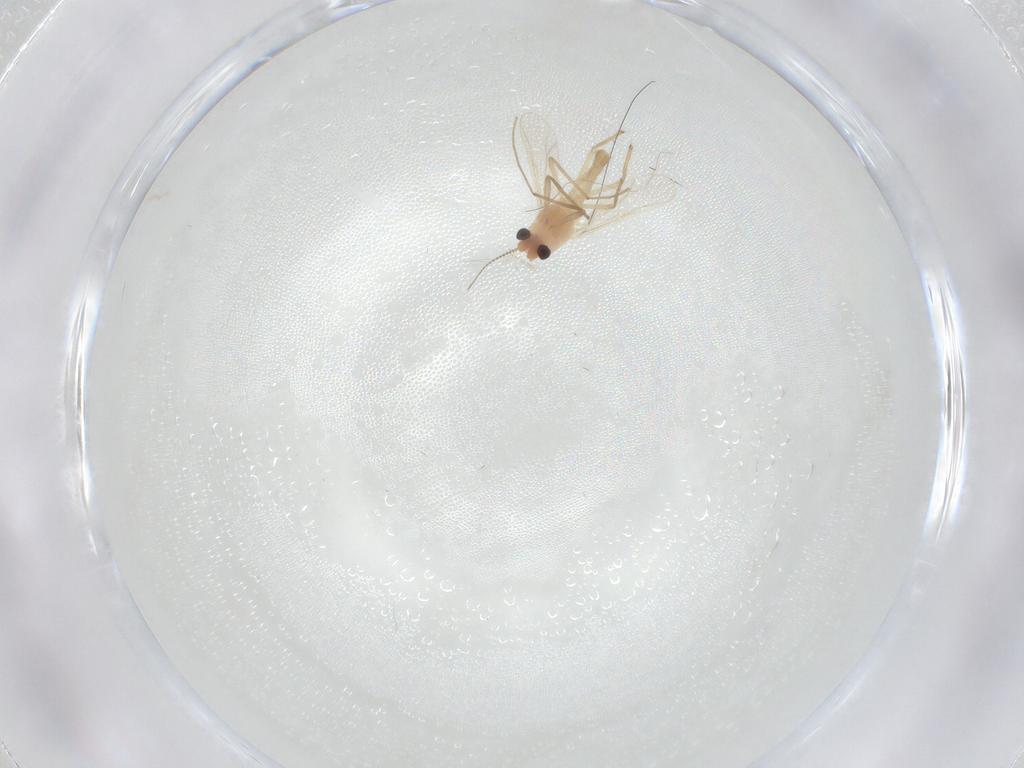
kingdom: Animalia
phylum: Arthropoda
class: Insecta
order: Diptera
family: Chironomidae
